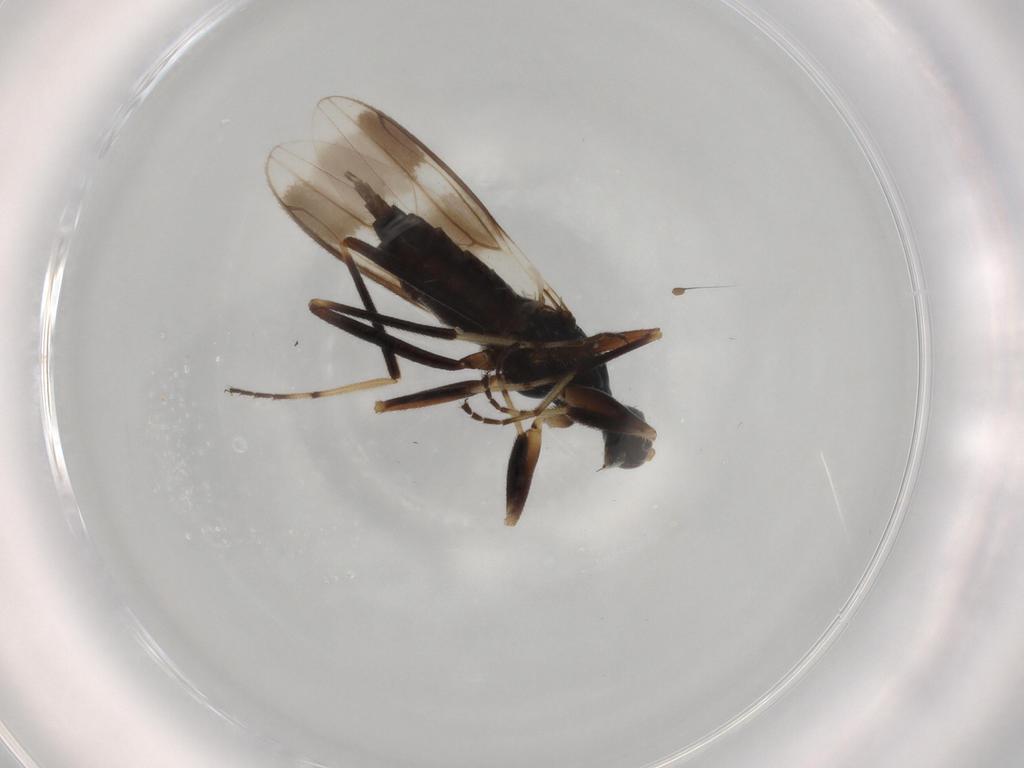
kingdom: Animalia
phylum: Arthropoda
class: Insecta
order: Diptera
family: Hybotidae
